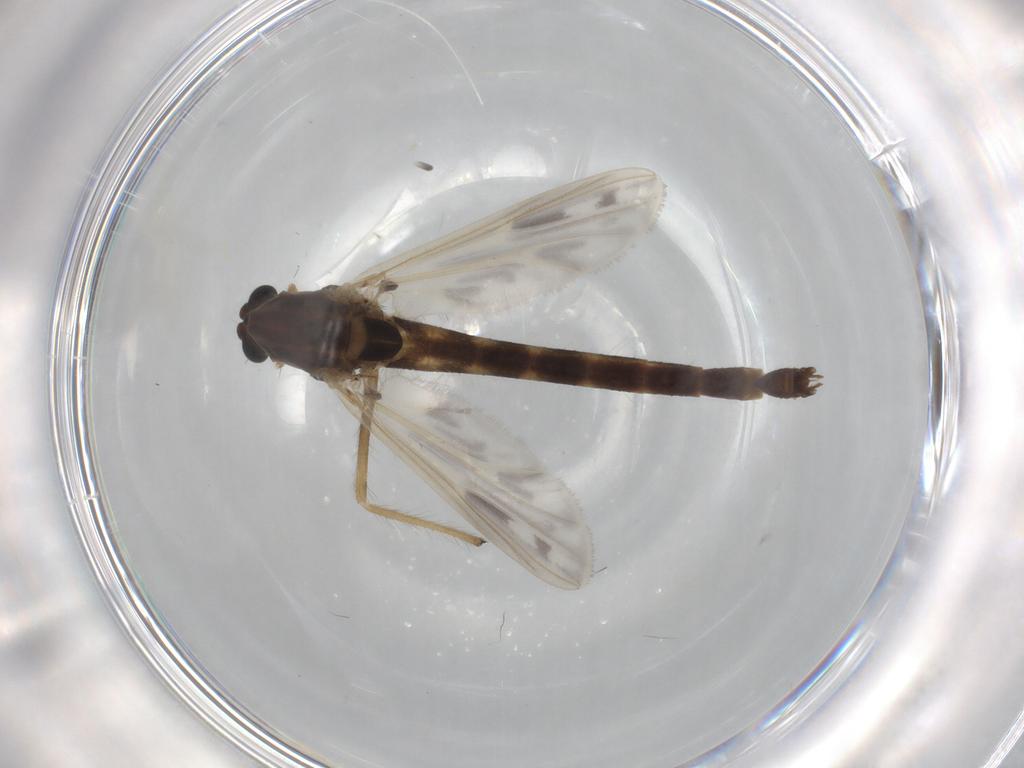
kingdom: Animalia
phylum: Arthropoda
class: Insecta
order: Diptera
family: Chironomidae
